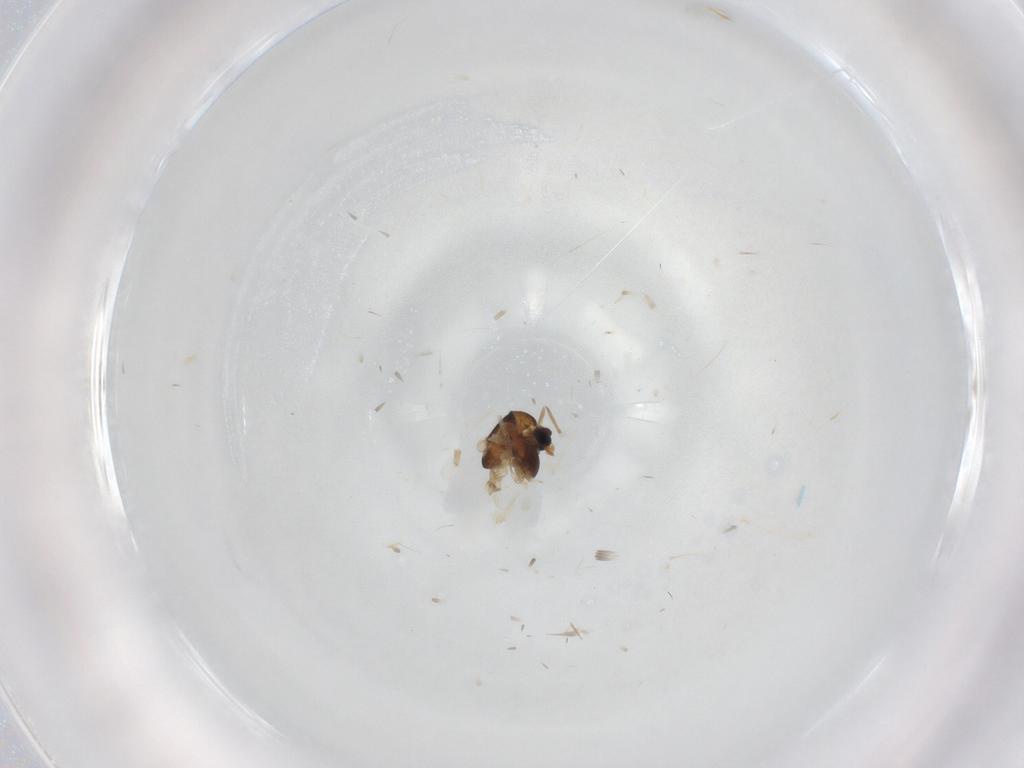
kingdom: Animalia
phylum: Arthropoda
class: Insecta
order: Diptera
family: Chironomidae
